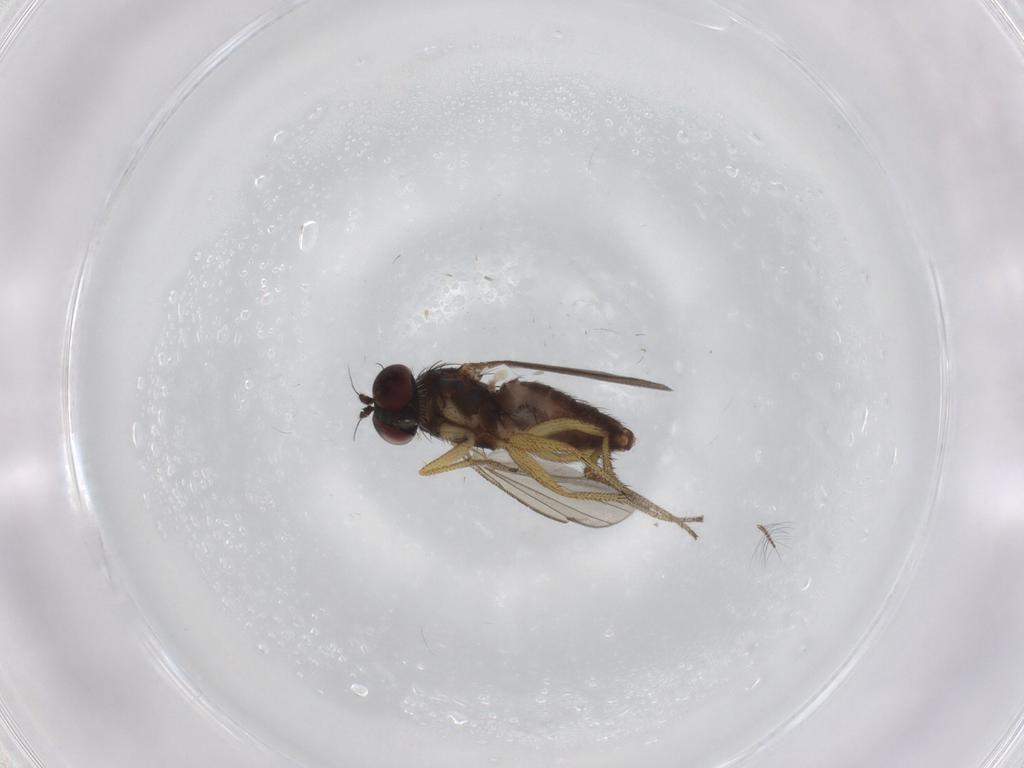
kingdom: Animalia
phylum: Arthropoda
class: Insecta
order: Diptera
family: Chironomidae
